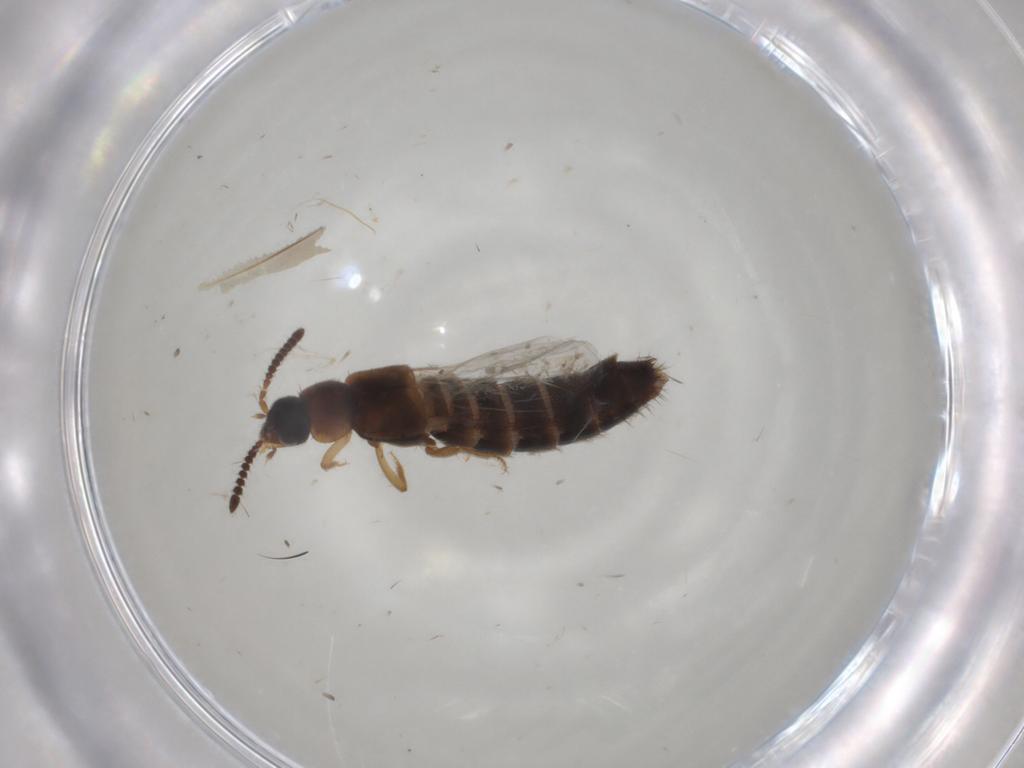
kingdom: Animalia
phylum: Arthropoda
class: Insecta
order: Coleoptera
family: Staphylinidae
